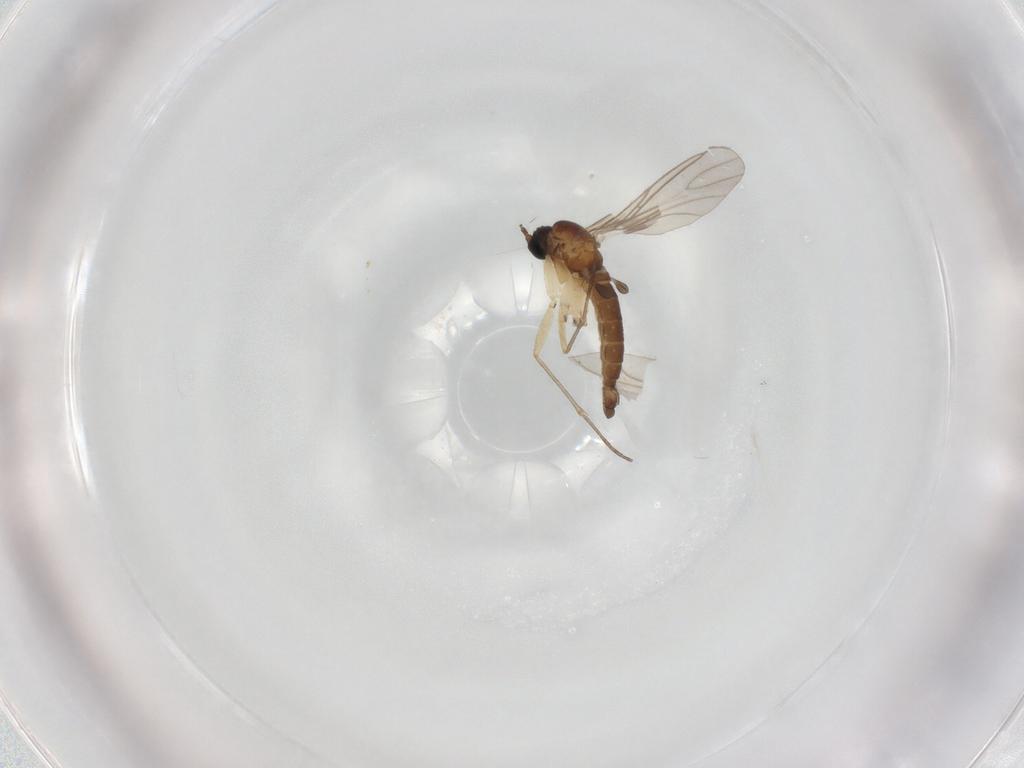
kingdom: Animalia
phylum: Arthropoda
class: Insecta
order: Diptera
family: Sciaridae
